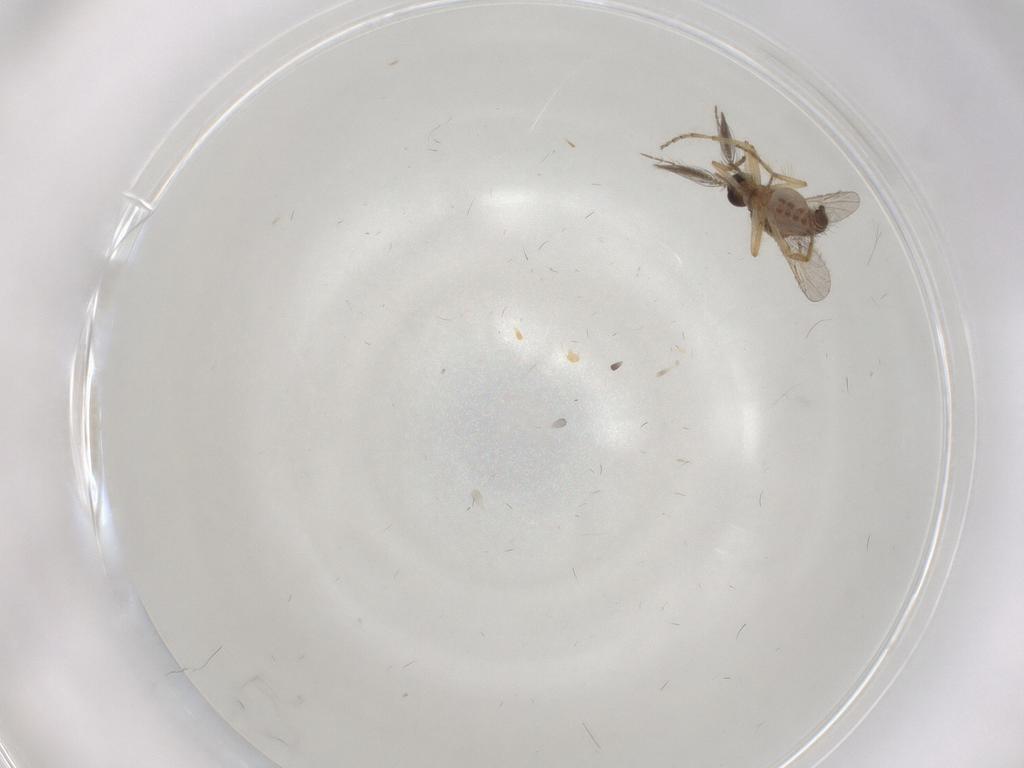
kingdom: Animalia
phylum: Arthropoda
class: Insecta
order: Diptera
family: Ceratopogonidae
